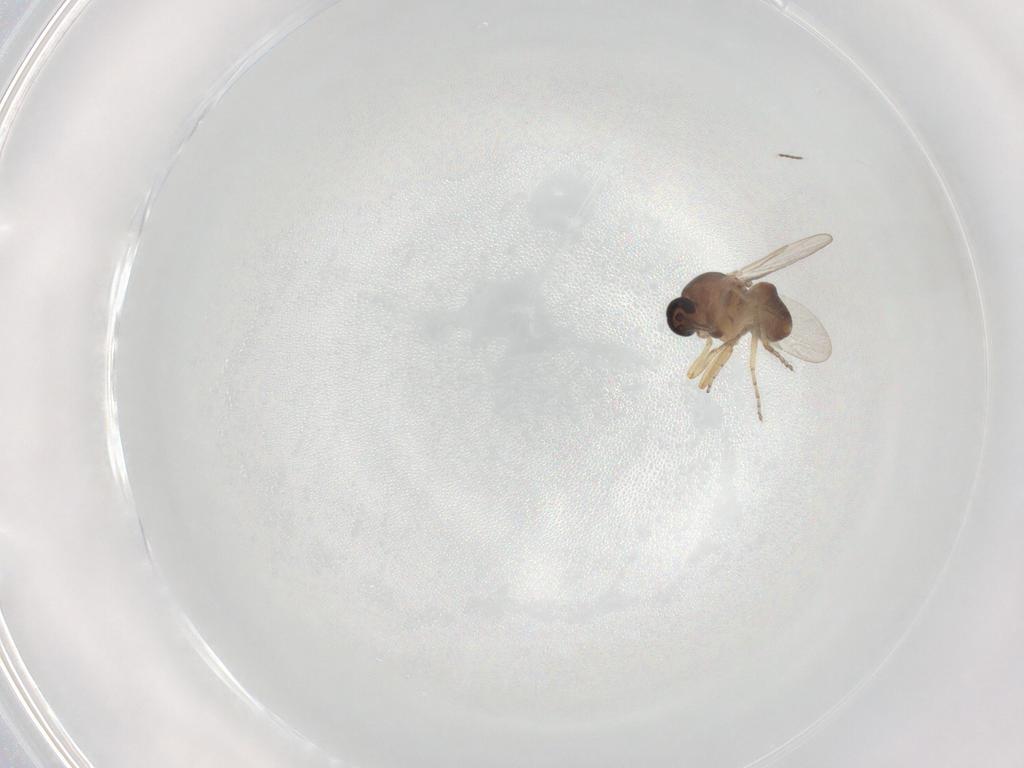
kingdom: Animalia
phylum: Arthropoda
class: Insecta
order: Diptera
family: Ceratopogonidae
